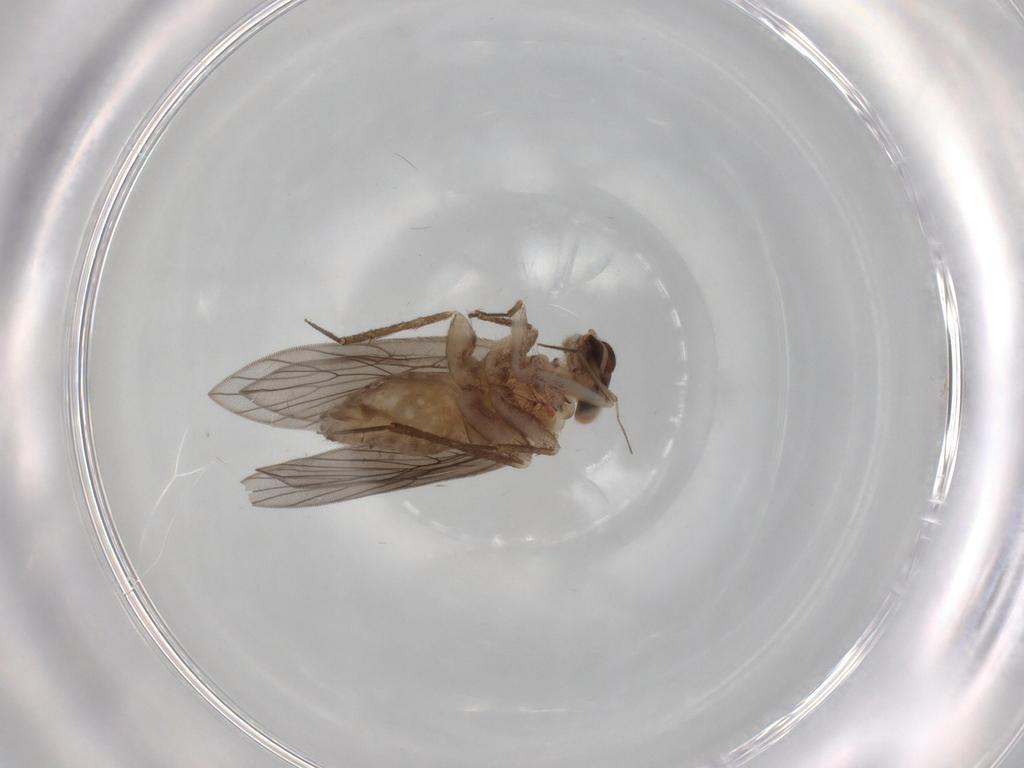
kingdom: Animalia
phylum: Arthropoda
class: Insecta
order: Psocodea
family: Lepidopsocidae
